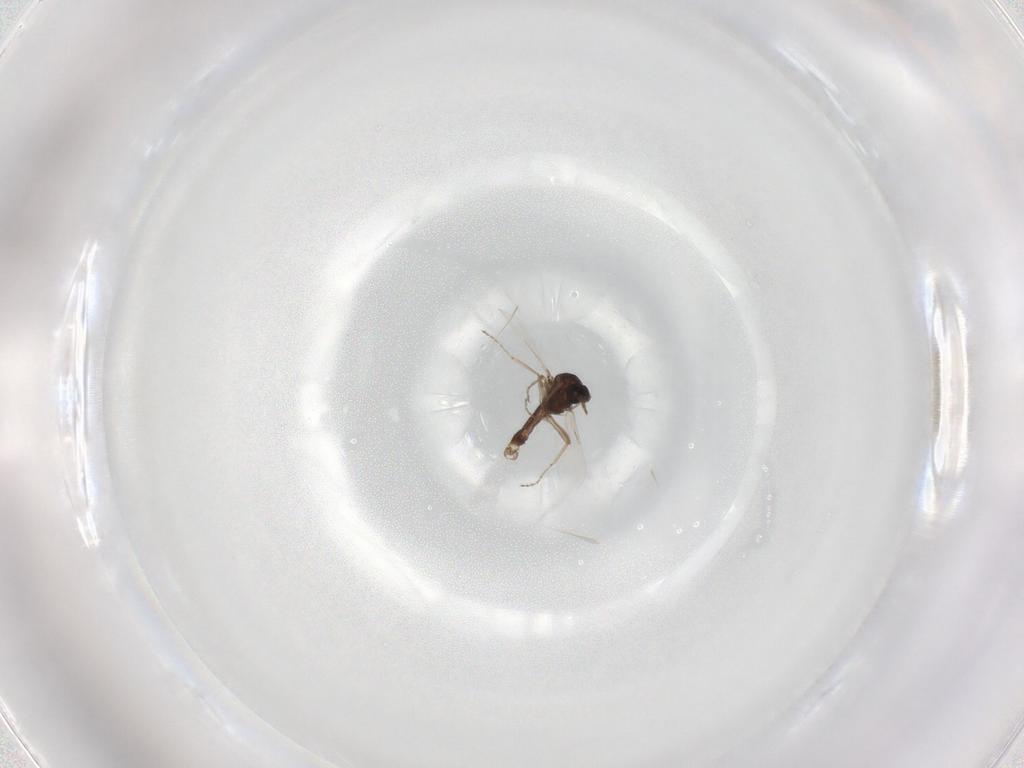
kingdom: Animalia
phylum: Arthropoda
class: Insecta
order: Diptera
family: Ceratopogonidae
